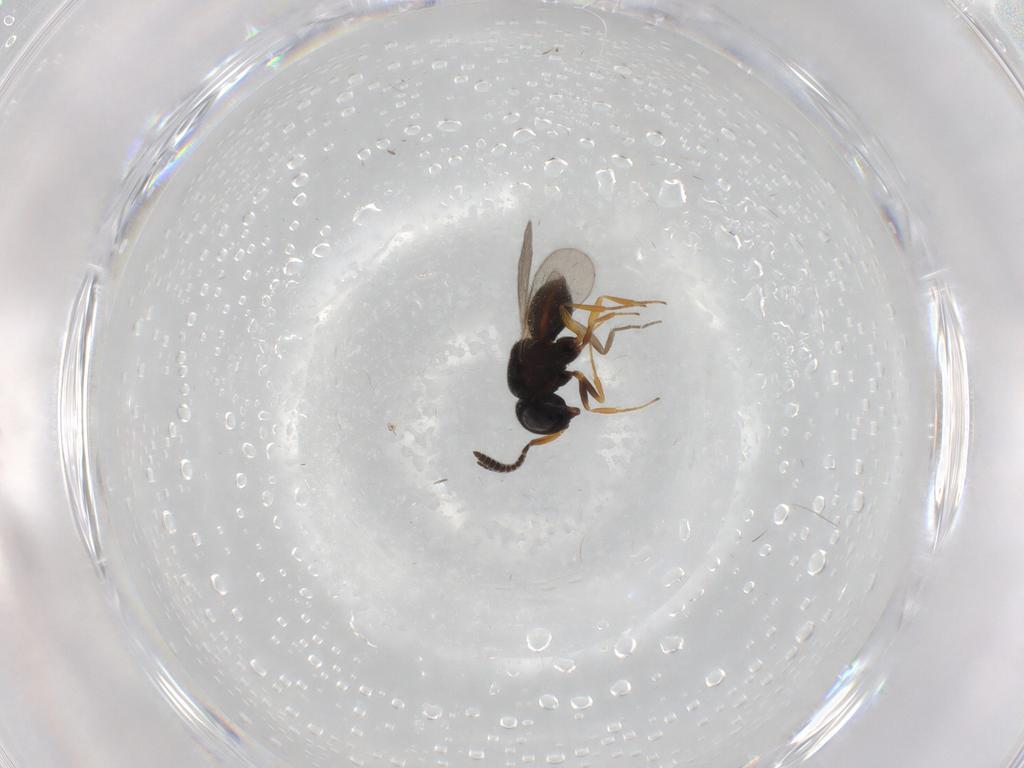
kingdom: Animalia
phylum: Arthropoda
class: Insecta
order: Hymenoptera
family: Scelionidae
